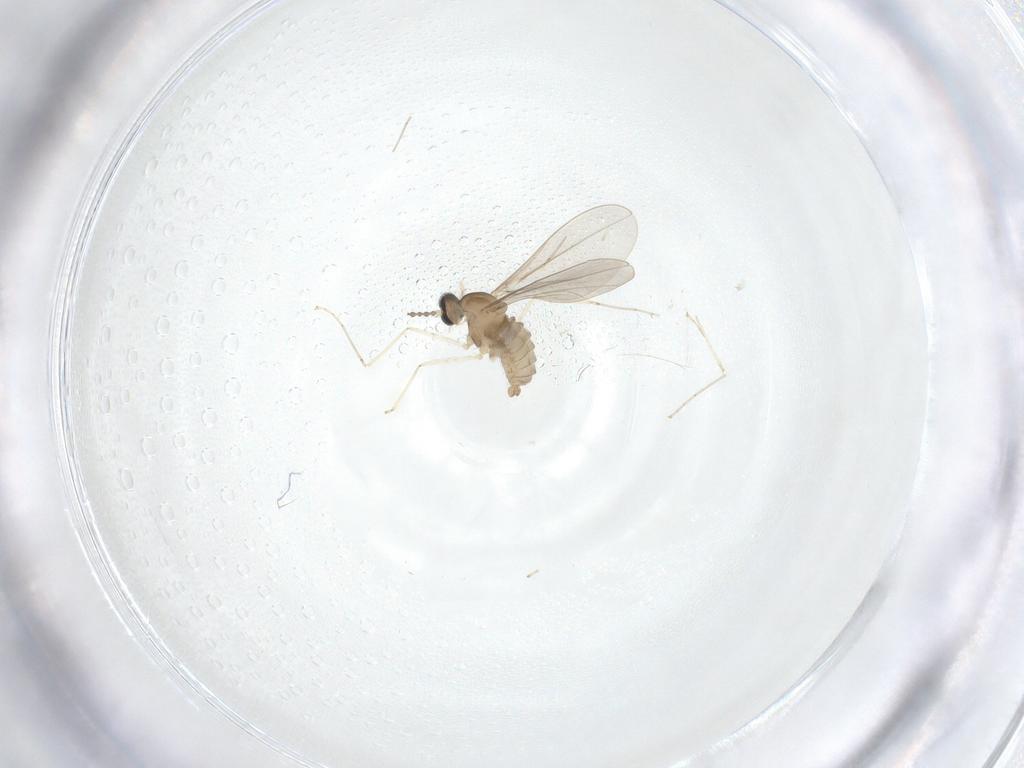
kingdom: Animalia
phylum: Arthropoda
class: Insecta
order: Diptera
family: Cecidomyiidae
